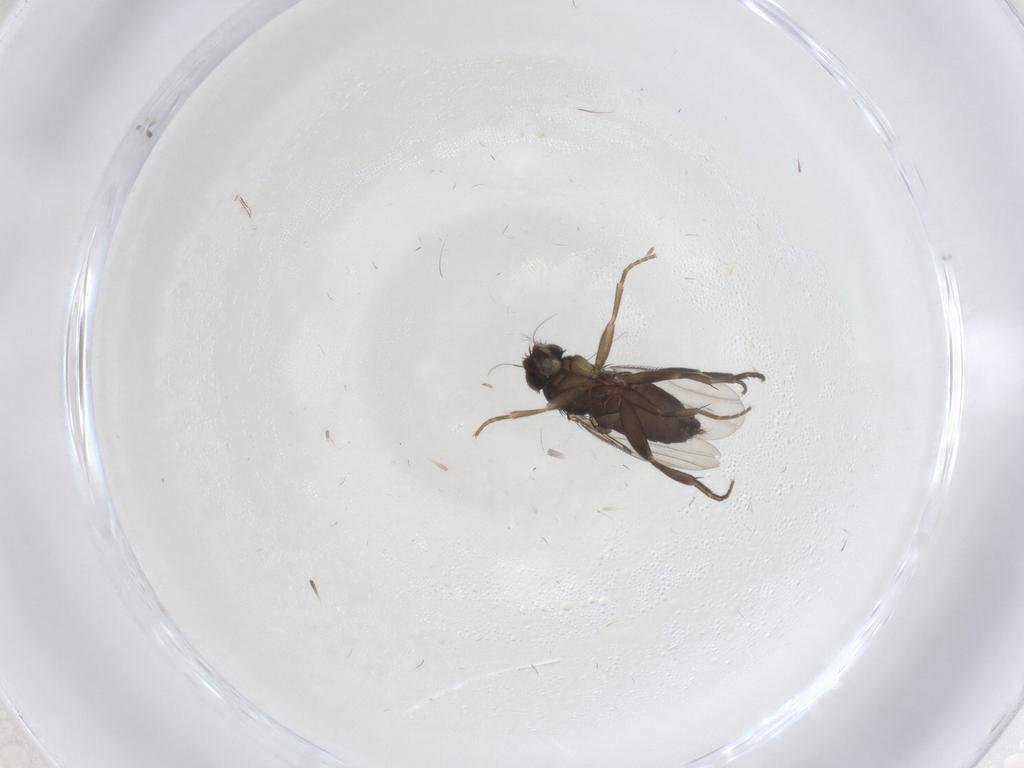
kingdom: Animalia
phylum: Arthropoda
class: Insecta
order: Diptera
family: Phoridae
